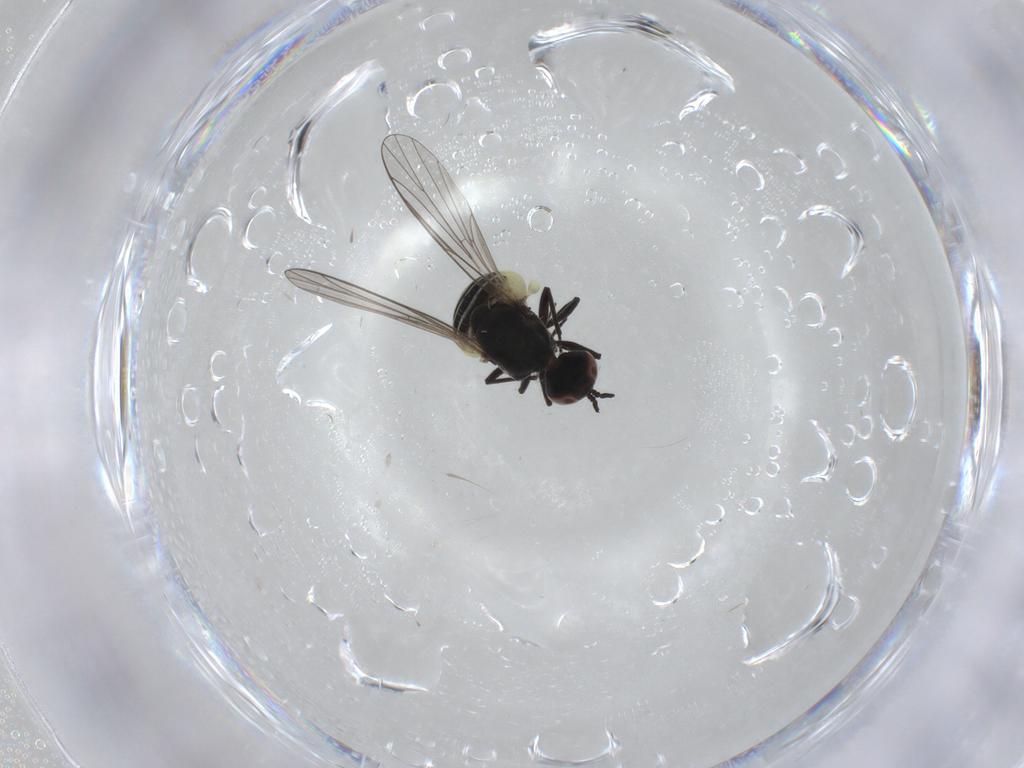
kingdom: Animalia
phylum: Arthropoda
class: Insecta
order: Diptera
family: Bombyliidae
